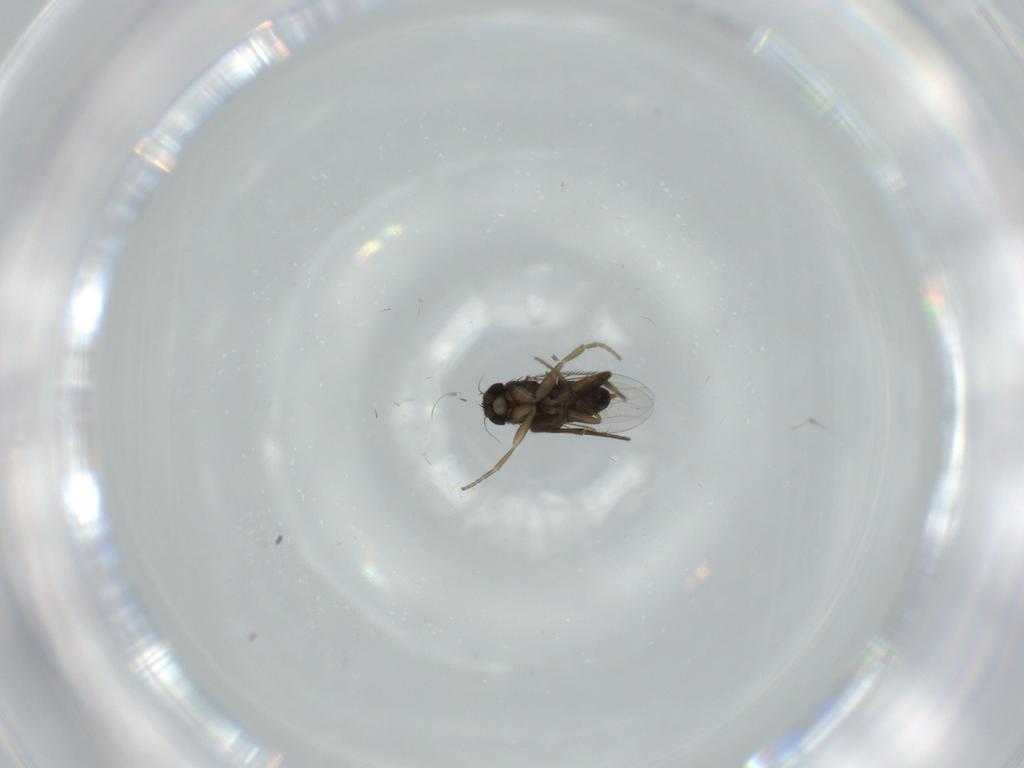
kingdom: Animalia
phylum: Arthropoda
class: Insecta
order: Diptera
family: Phoridae
